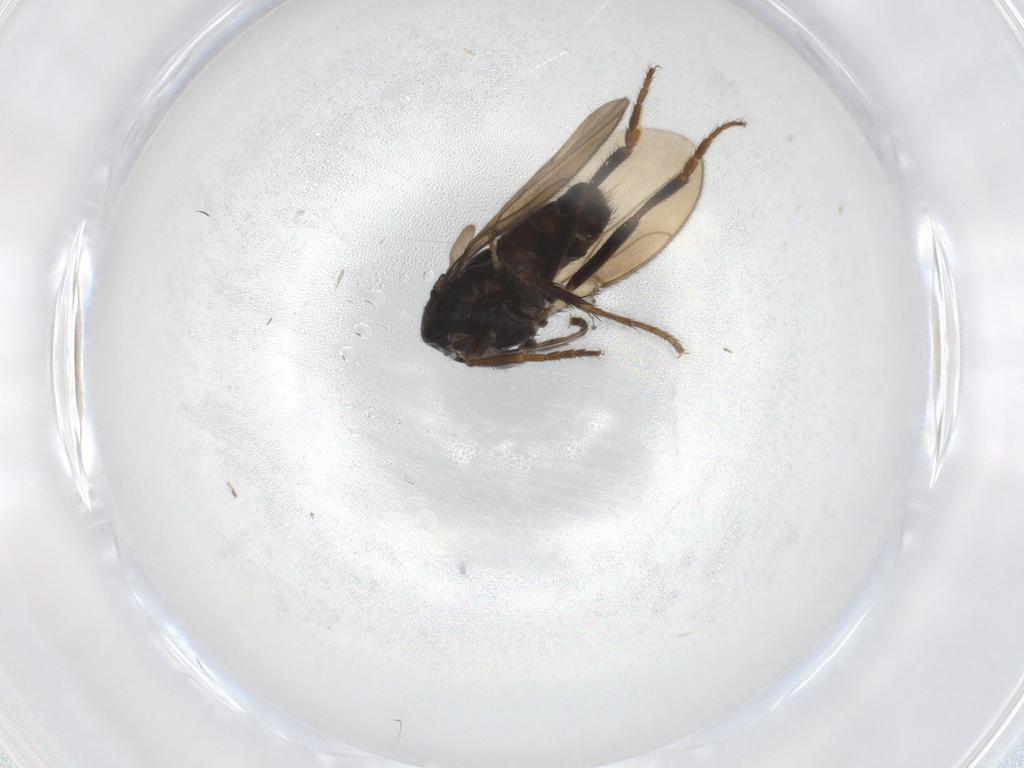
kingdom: Animalia
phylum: Arthropoda
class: Insecta
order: Diptera
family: Sphaeroceridae
